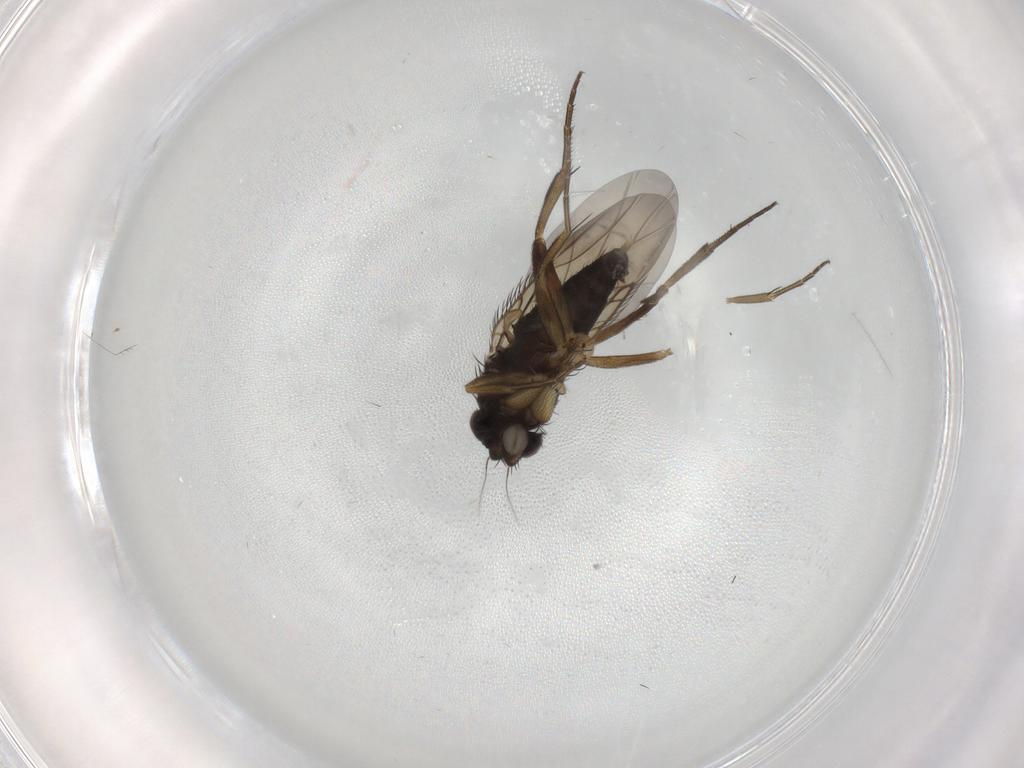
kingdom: Animalia
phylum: Arthropoda
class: Insecta
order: Diptera
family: Phoridae
